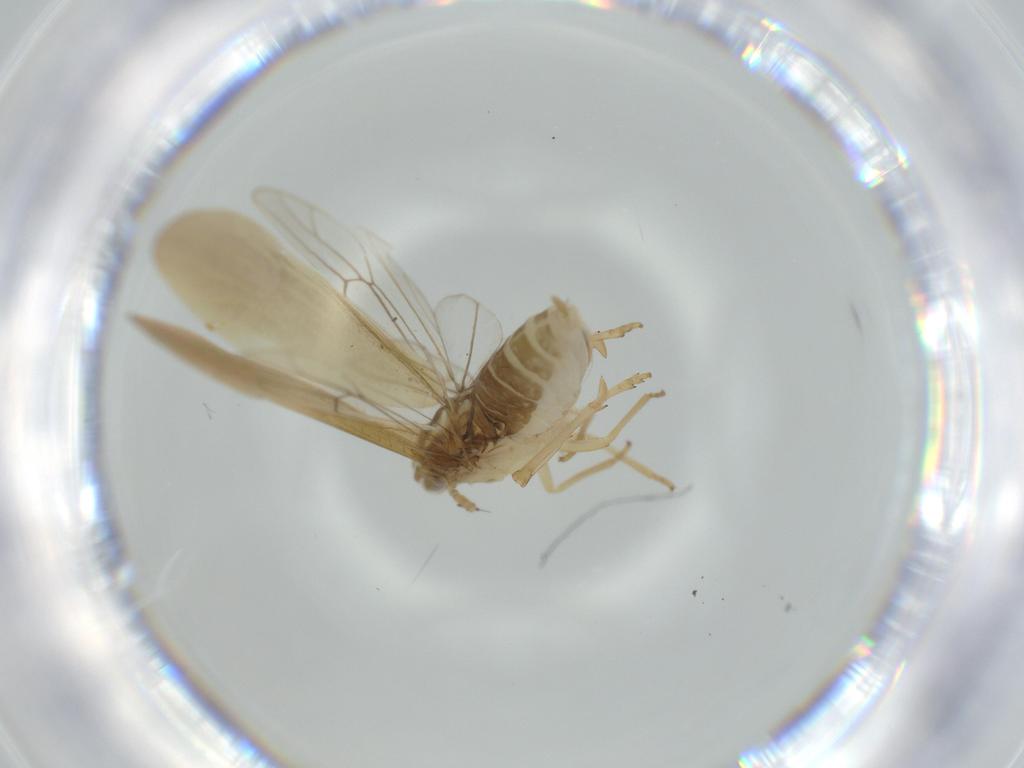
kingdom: Animalia
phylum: Arthropoda
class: Insecta
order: Hemiptera
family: Delphacidae
